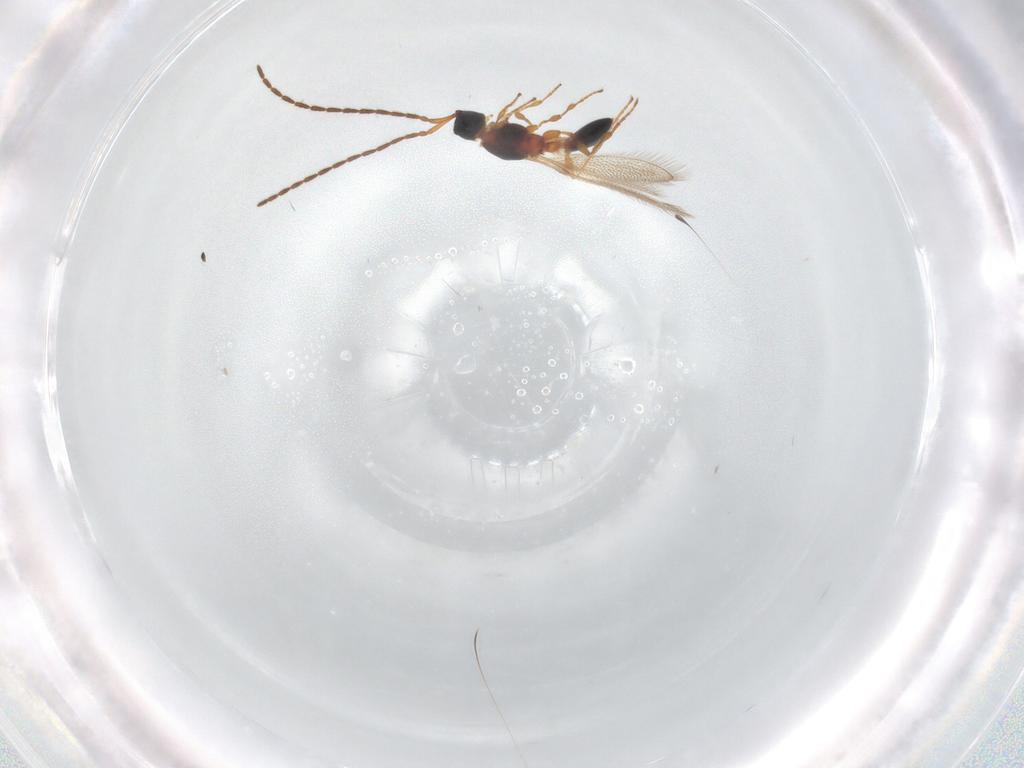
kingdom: Animalia
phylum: Arthropoda
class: Insecta
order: Hymenoptera
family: Diapriidae
